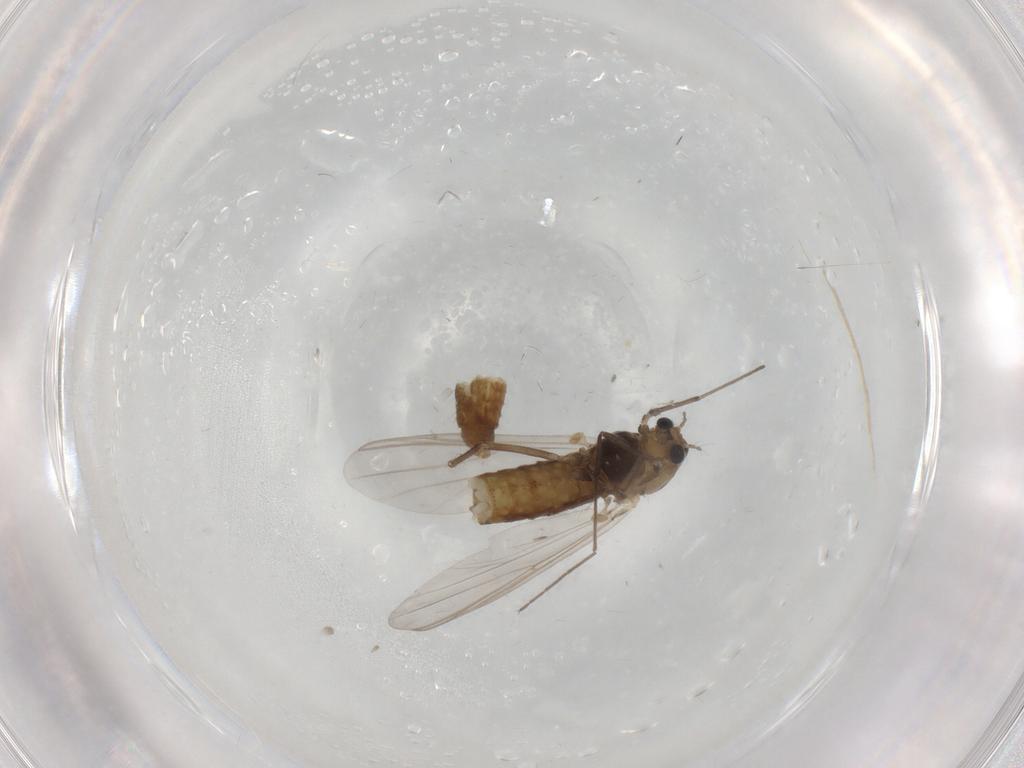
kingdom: Animalia
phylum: Arthropoda
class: Insecta
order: Diptera
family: Chironomidae
